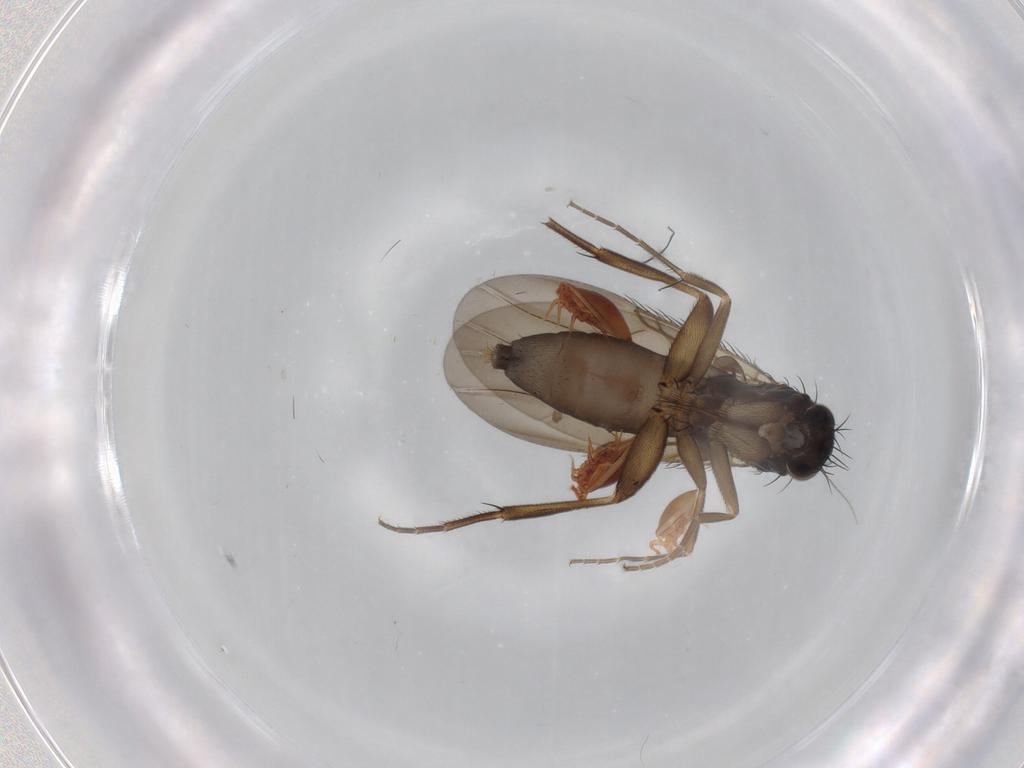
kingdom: Animalia
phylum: Arthropoda
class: Insecta
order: Diptera
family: Phoridae
